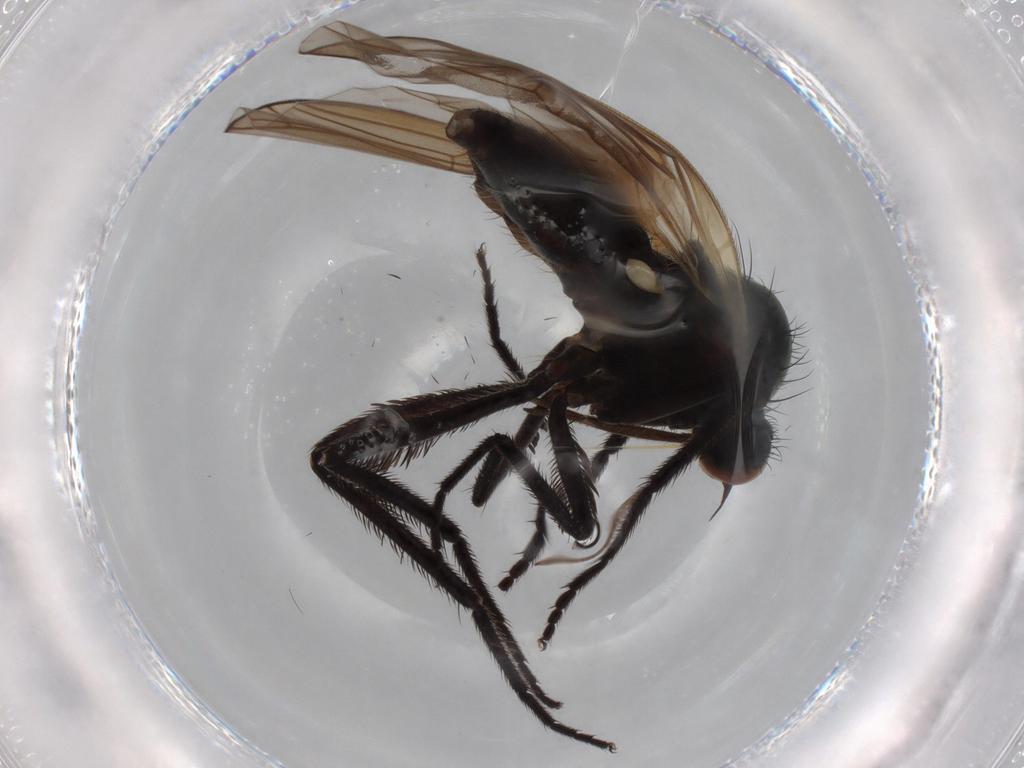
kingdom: Animalia
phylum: Arthropoda
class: Insecta
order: Diptera
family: Empididae
